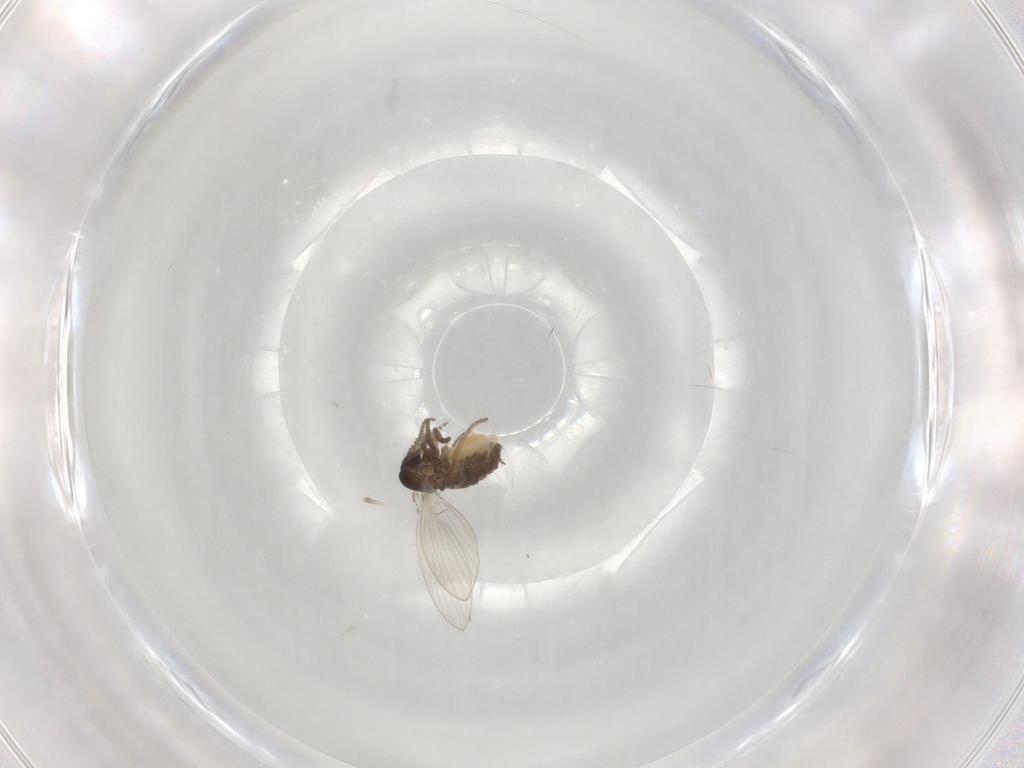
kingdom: Animalia
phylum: Arthropoda
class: Insecta
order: Diptera
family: Psychodidae
